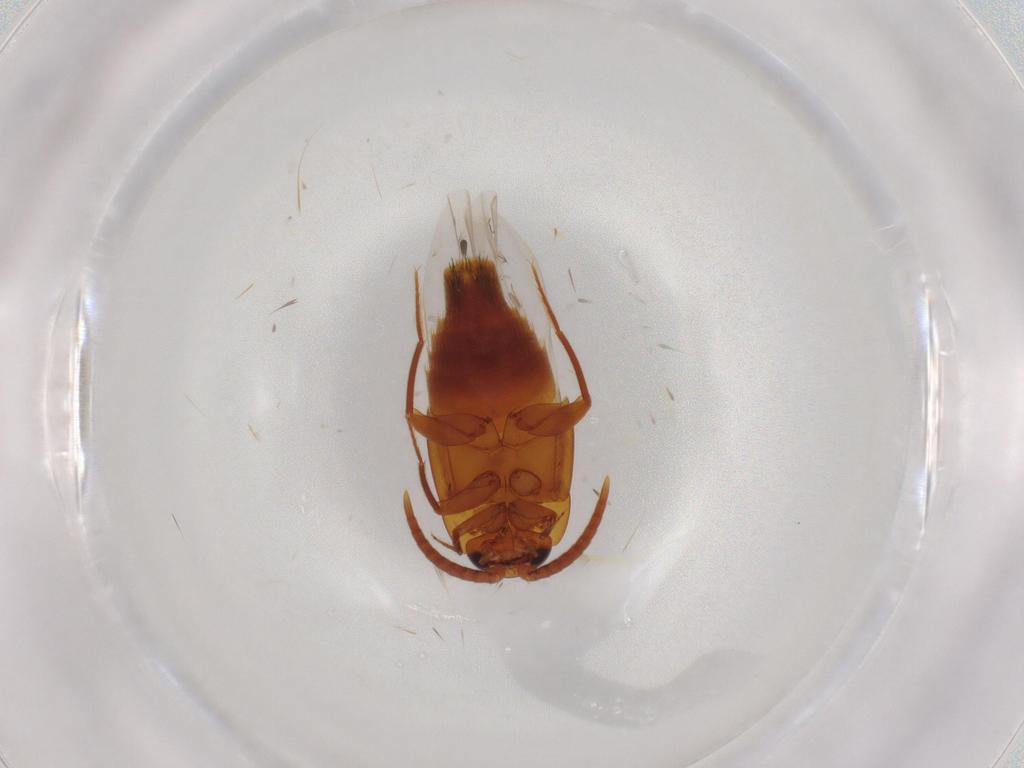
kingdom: Animalia
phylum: Arthropoda
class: Insecta
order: Coleoptera
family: Staphylinidae
